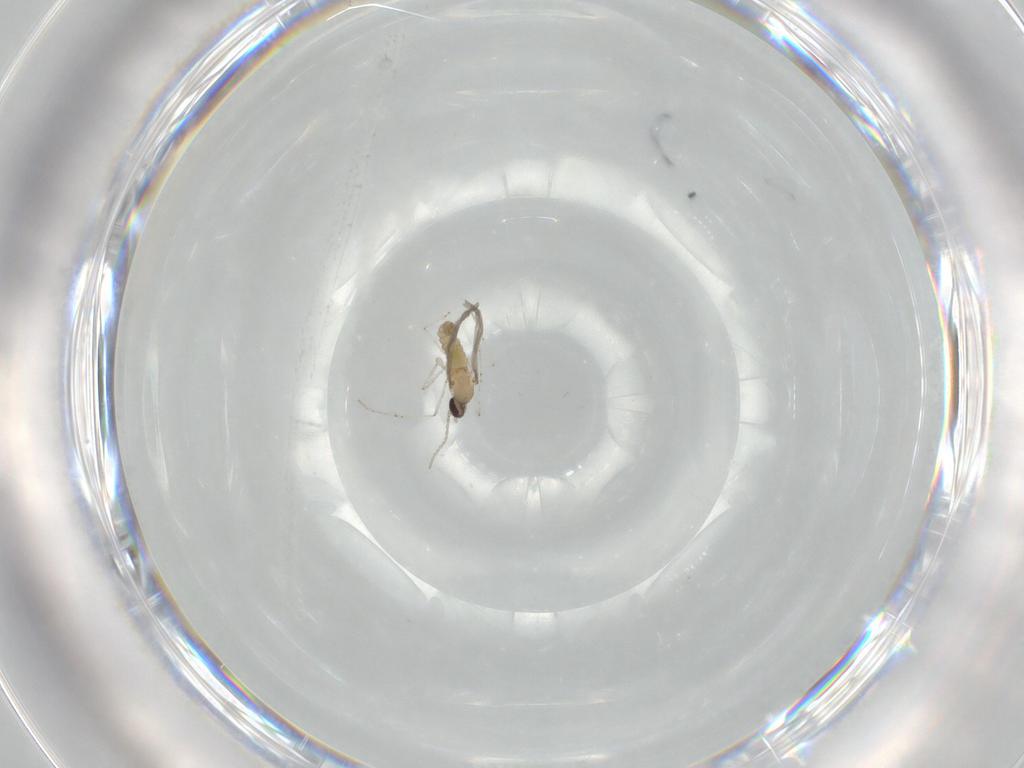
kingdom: Animalia
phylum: Arthropoda
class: Insecta
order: Diptera
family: Cecidomyiidae
